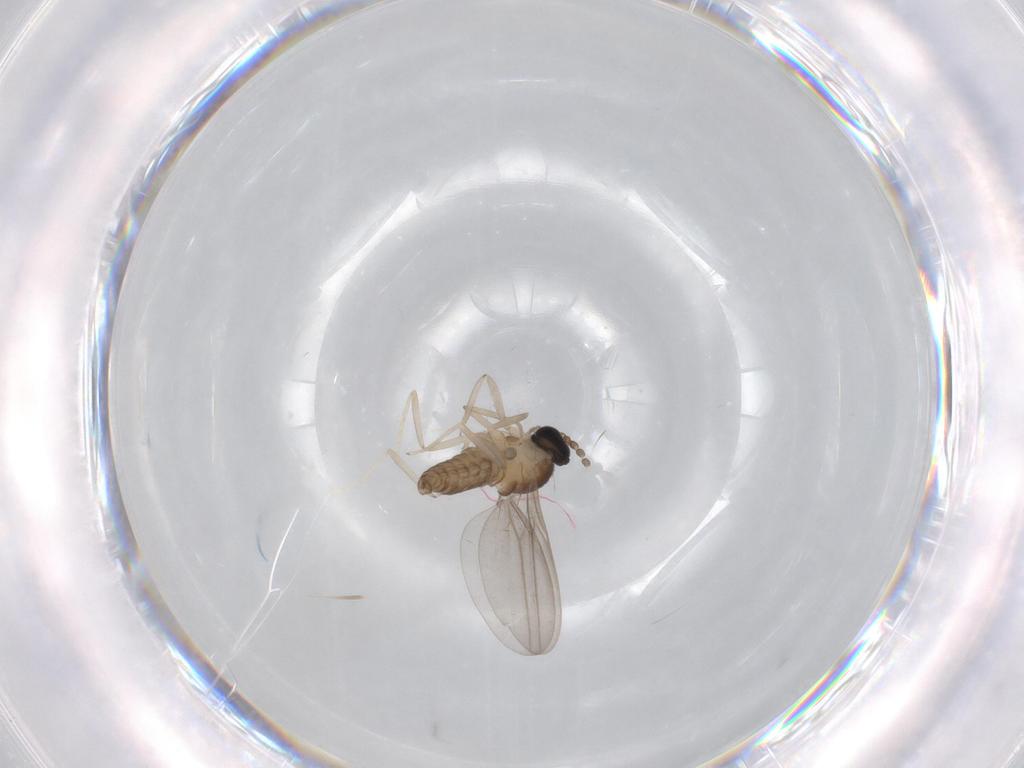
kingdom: Animalia
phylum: Arthropoda
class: Insecta
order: Diptera
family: Cecidomyiidae
